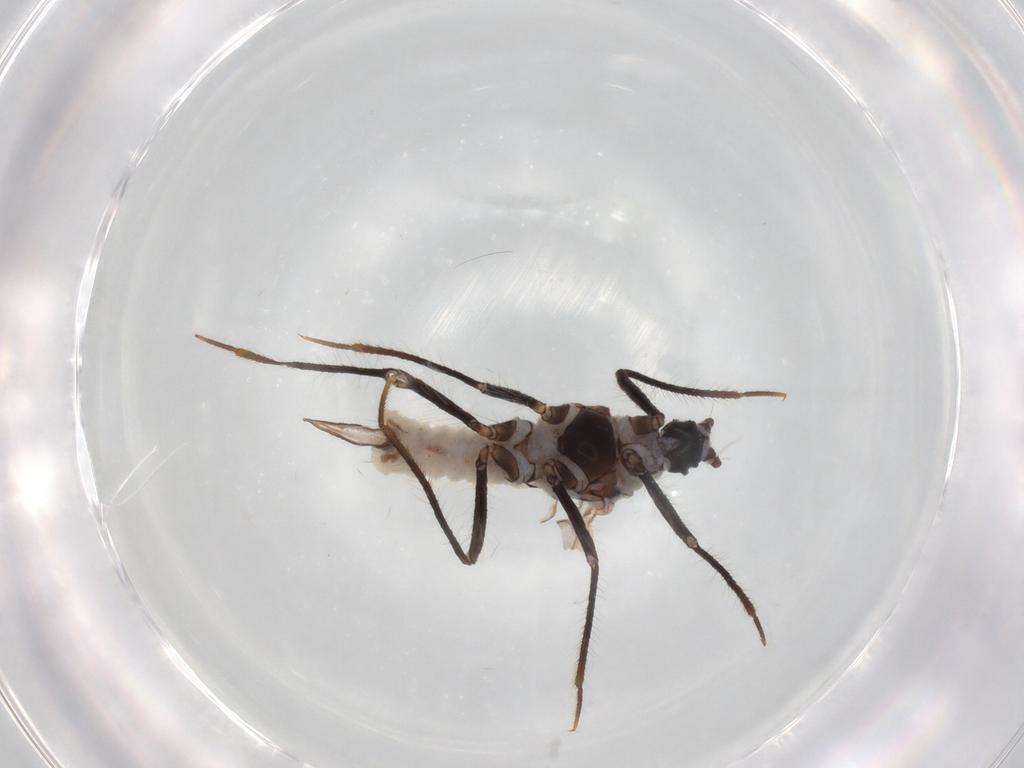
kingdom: Animalia
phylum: Arthropoda
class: Insecta
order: Hemiptera
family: Putoidae
